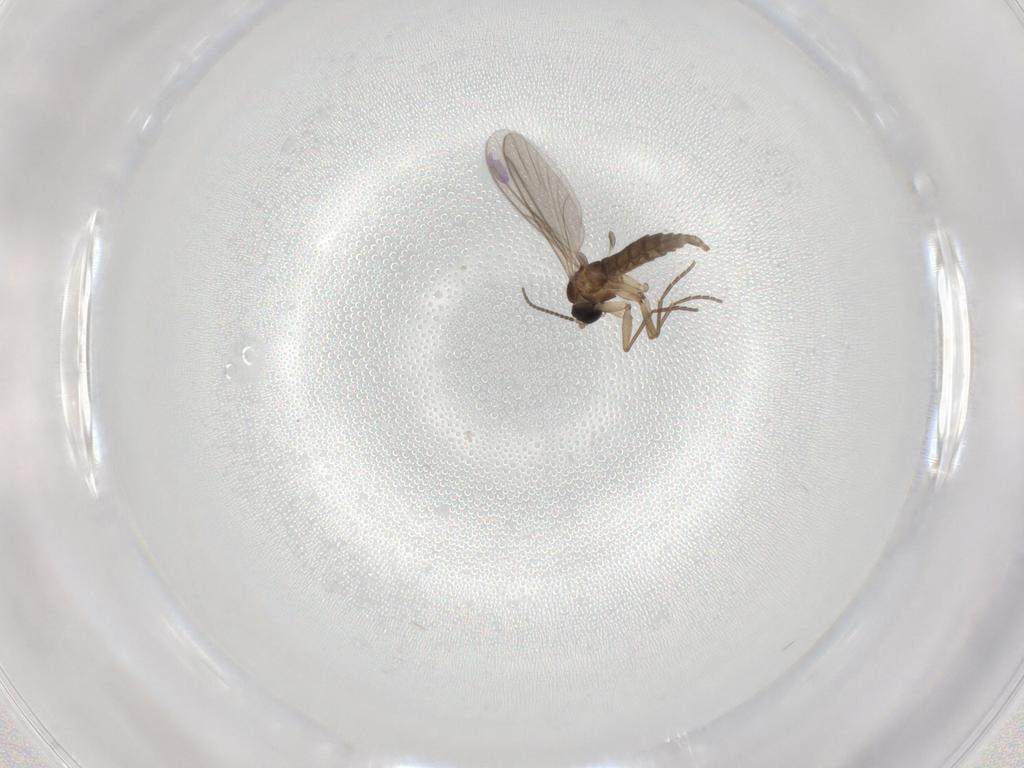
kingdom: Animalia
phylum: Arthropoda
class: Insecta
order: Diptera
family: Sciaridae
